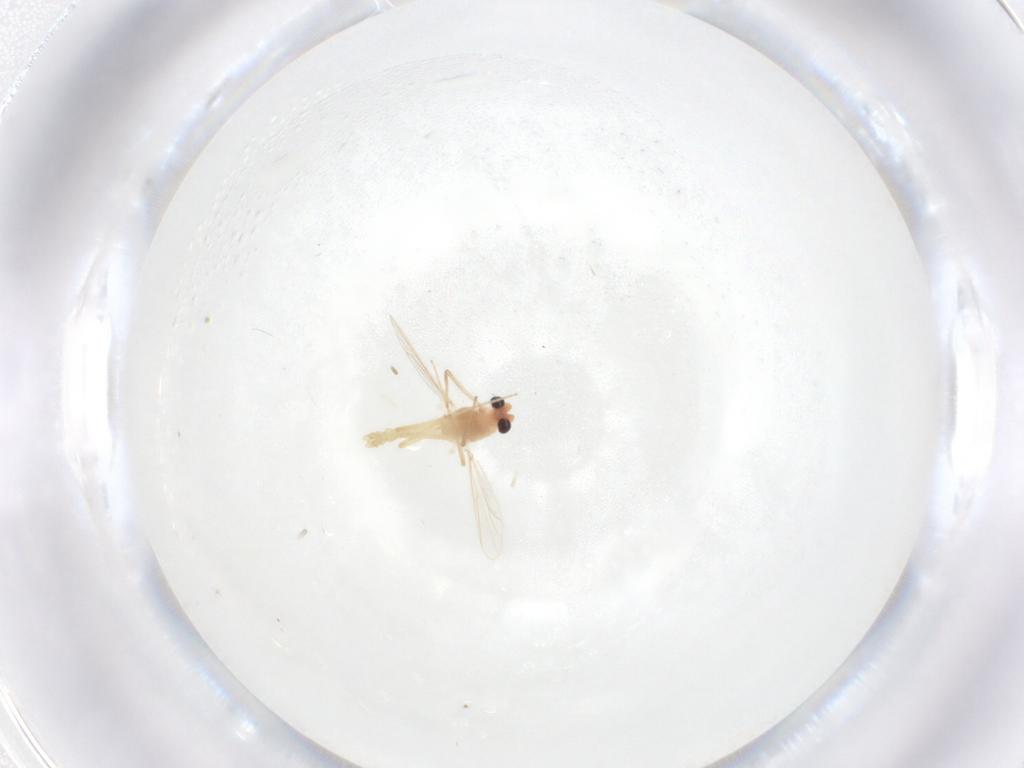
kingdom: Animalia
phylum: Arthropoda
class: Insecta
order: Diptera
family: Chironomidae
